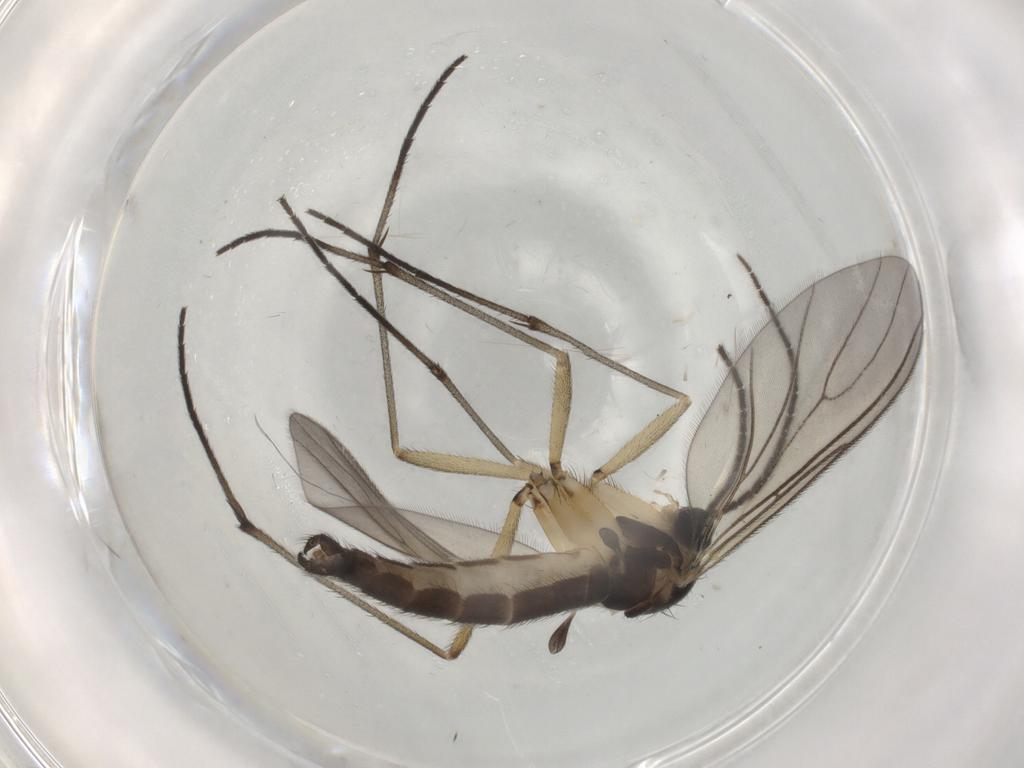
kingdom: Animalia
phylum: Arthropoda
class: Insecta
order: Diptera
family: Sciaridae
